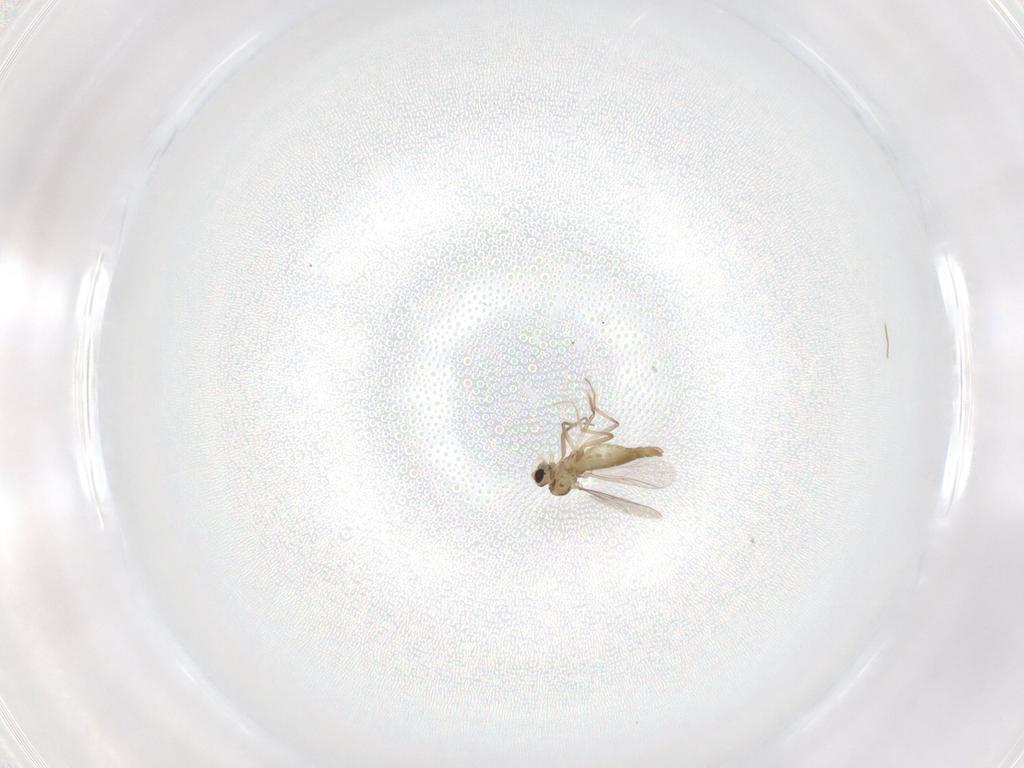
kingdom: Animalia
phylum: Arthropoda
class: Insecta
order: Diptera
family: Chironomidae
